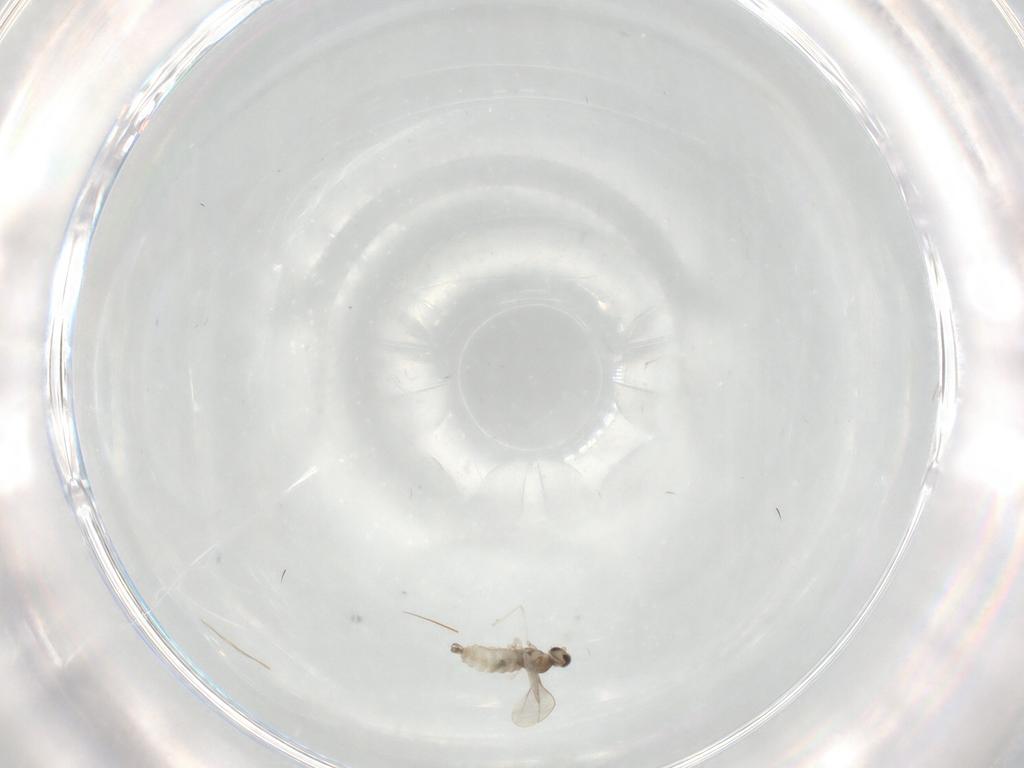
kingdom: Animalia
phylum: Arthropoda
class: Insecta
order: Diptera
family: Cecidomyiidae
